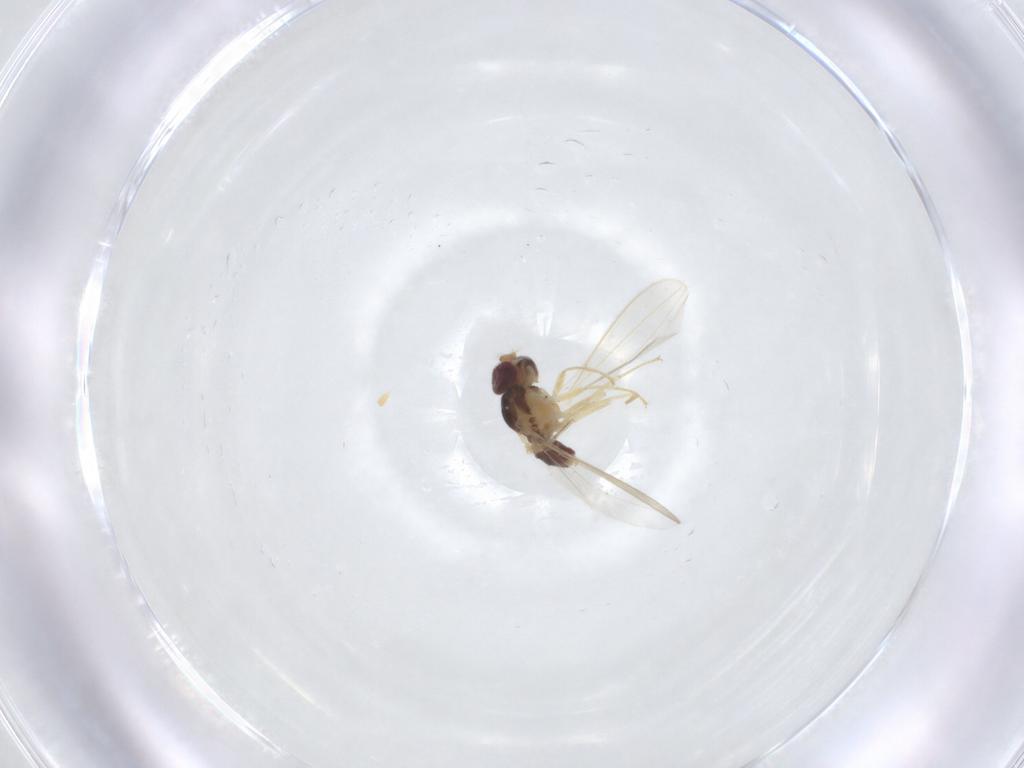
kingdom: Animalia
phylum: Arthropoda
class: Insecta
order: Diptera
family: Asteiidae
